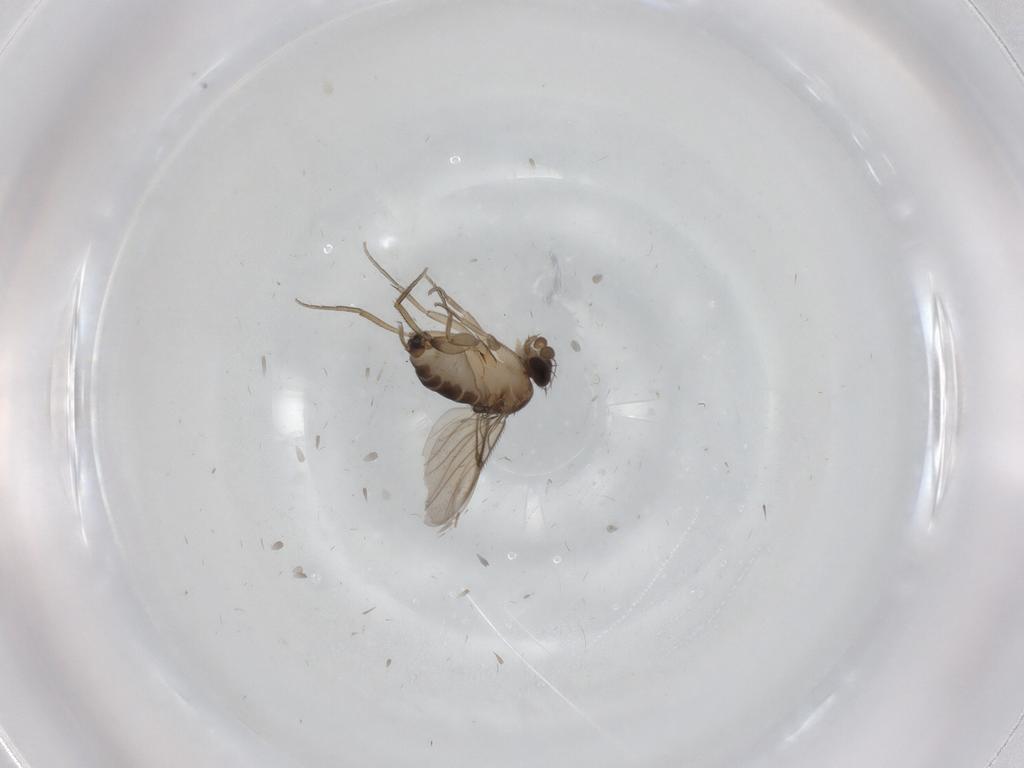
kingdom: Animalia
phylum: Arthropoda
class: Insecta
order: Diptera
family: Phoridae
